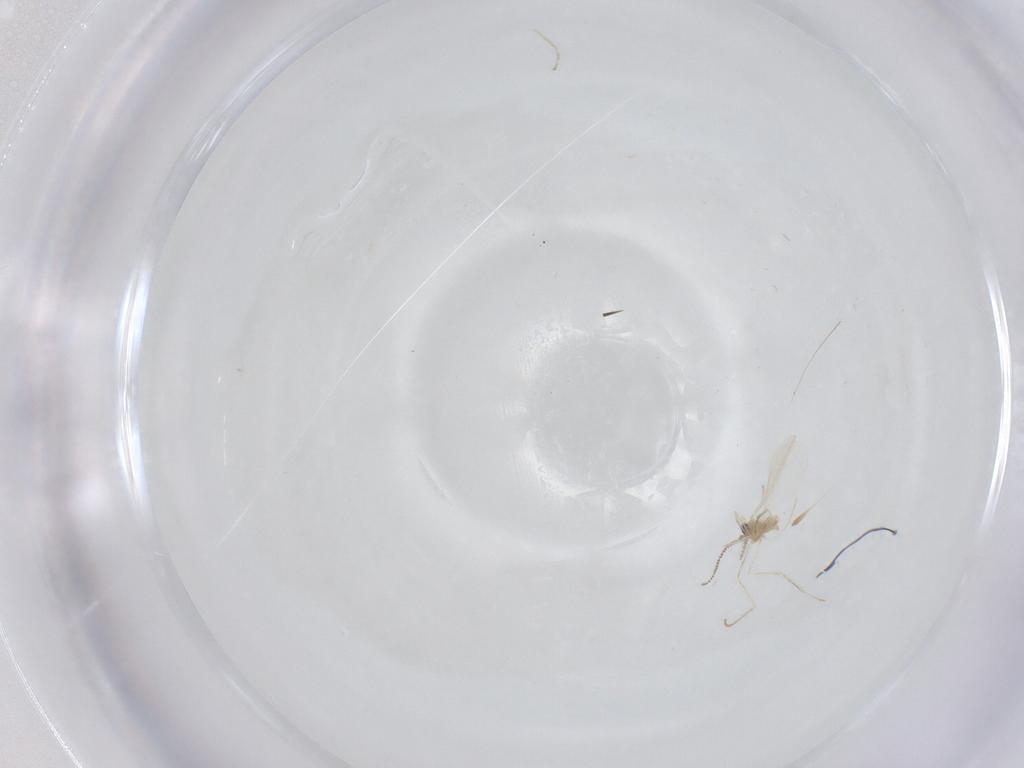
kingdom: Animalia
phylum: Arthropoda
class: Insecta
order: Diptera
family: Cecidomyiidae
